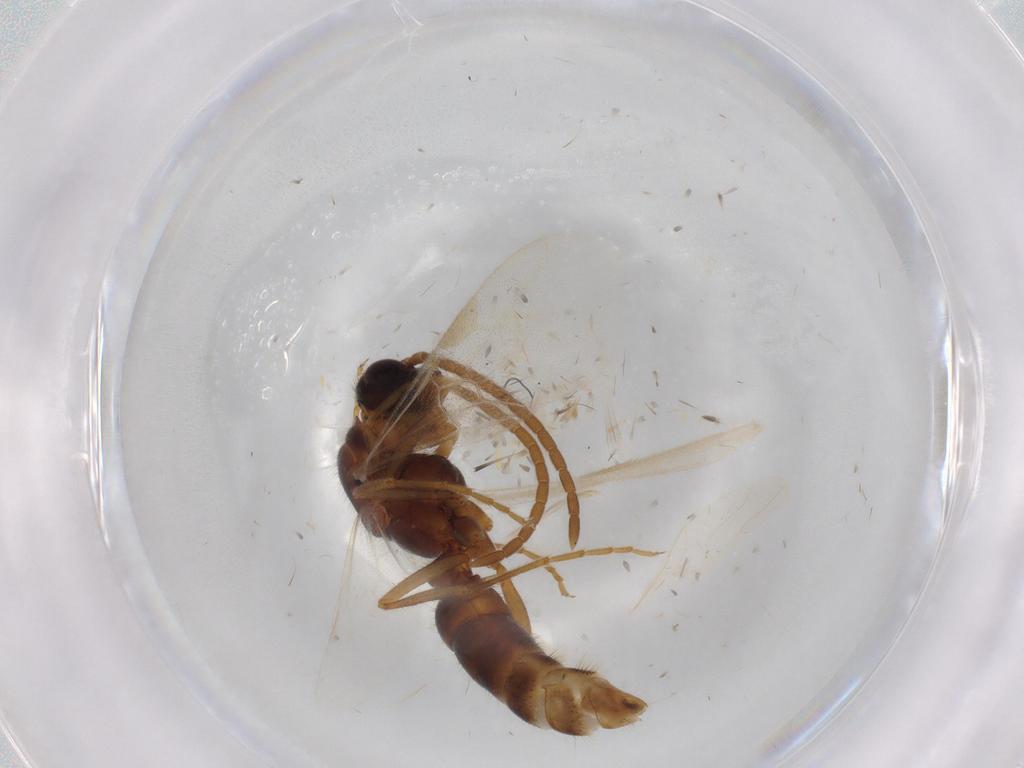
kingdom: Animalia
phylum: Arthropoda
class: Insecta
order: Hymenoptera
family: Formicidae
